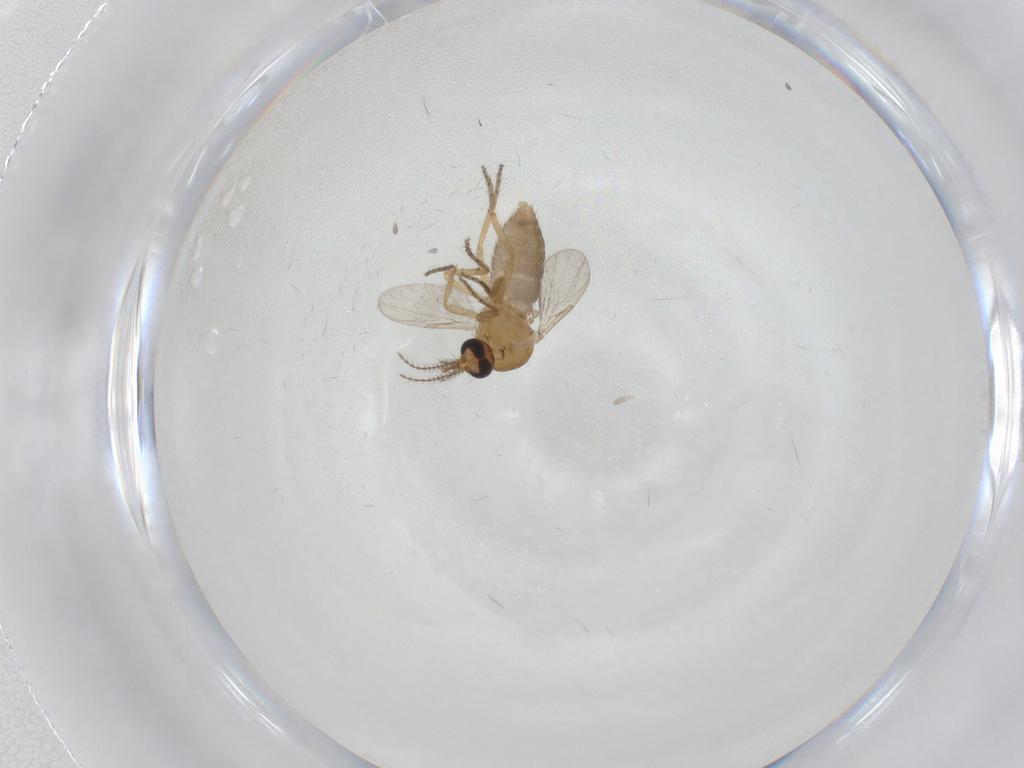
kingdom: Animalia
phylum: Arthropoda
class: Insecta
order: Diptera
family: Ceratopogonidae
